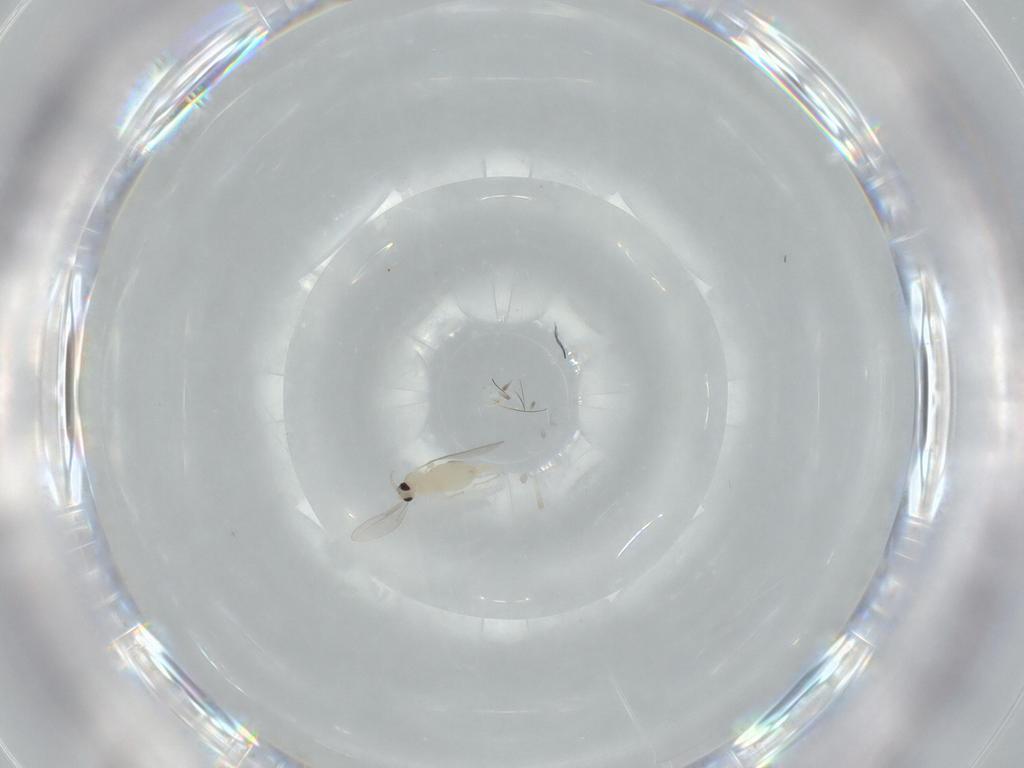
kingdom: Animalia
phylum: Arthropoda
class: Insecta
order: Diptera
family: Cecidomyiidae
